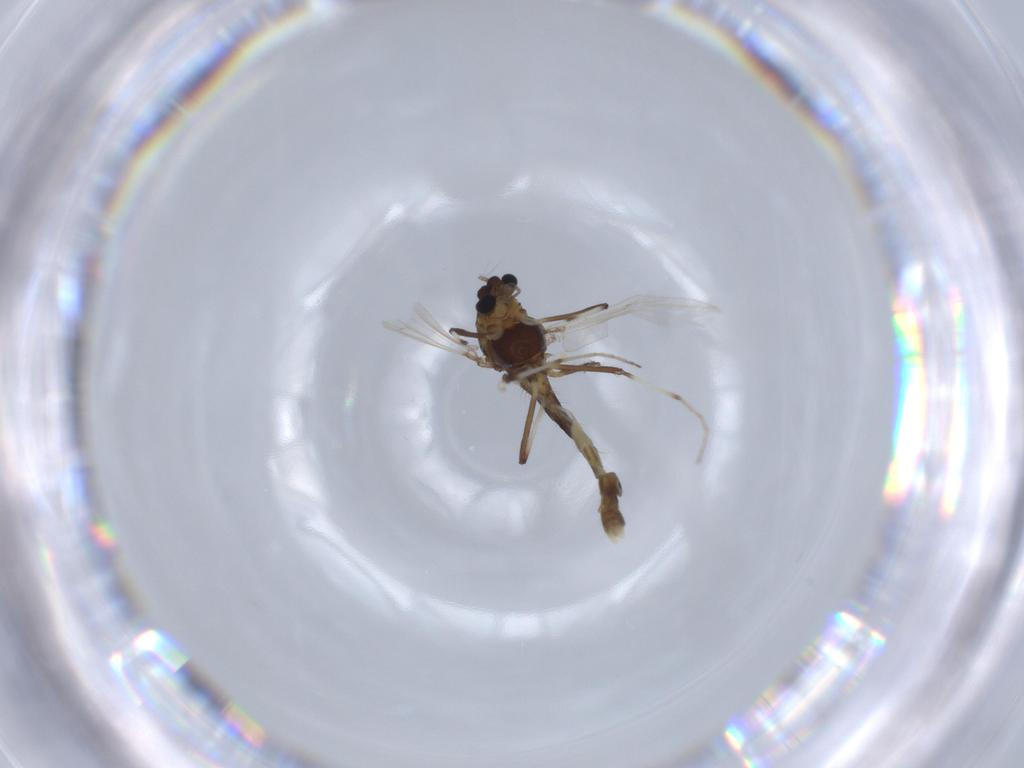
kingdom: Animalia
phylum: Arthropoda
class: Insecta
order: Diptera
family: Chironomidae
